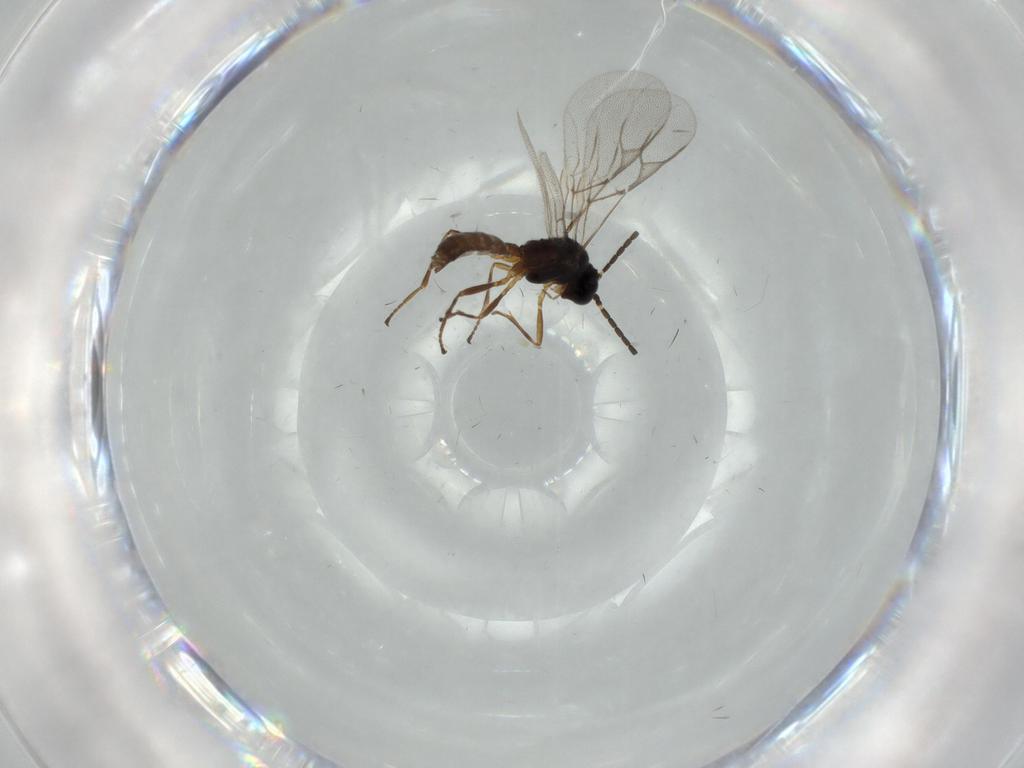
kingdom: Animalia
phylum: Arthropoda
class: Insecta
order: Hymenoptera
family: Braconidae
